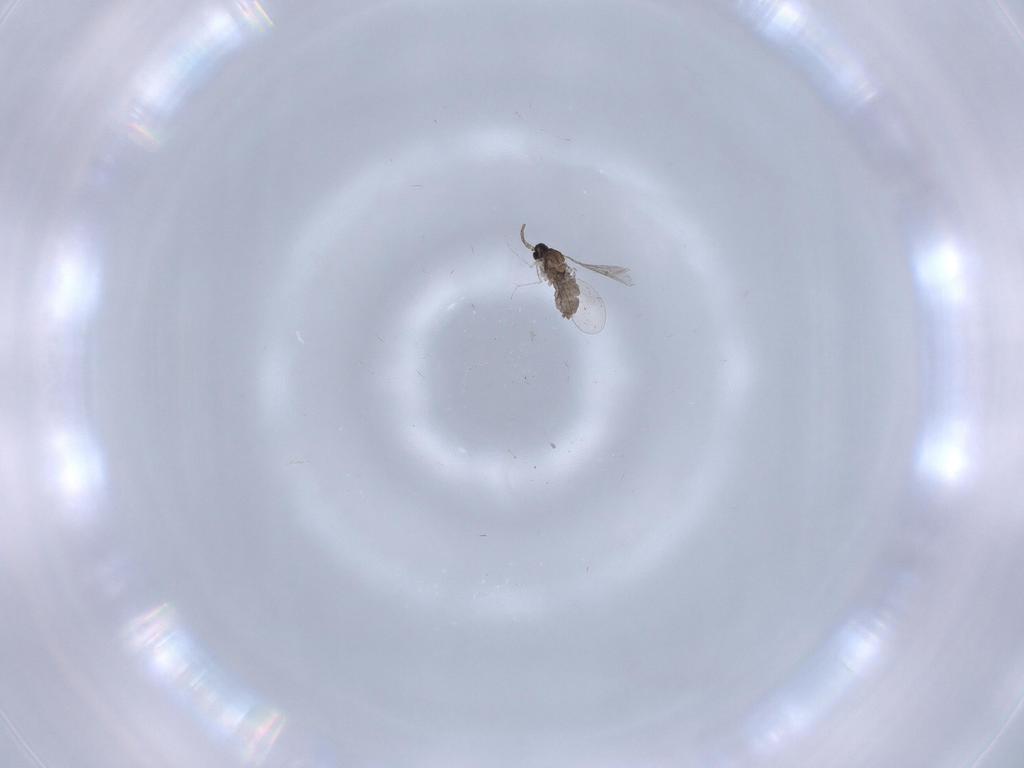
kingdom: Animalia
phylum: Arthropoda
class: Insecta
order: Diptera
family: Cecidomyiidae
